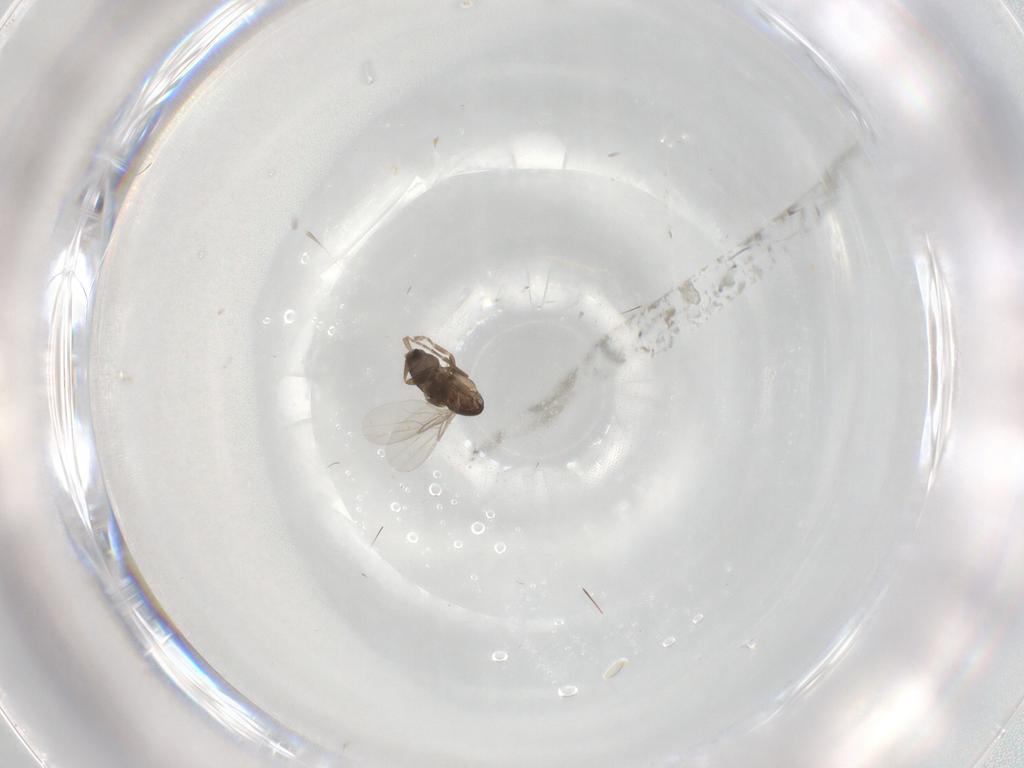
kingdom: Animalia
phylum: Arthropoda
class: Insecta
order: Diptera
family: Phoridae
